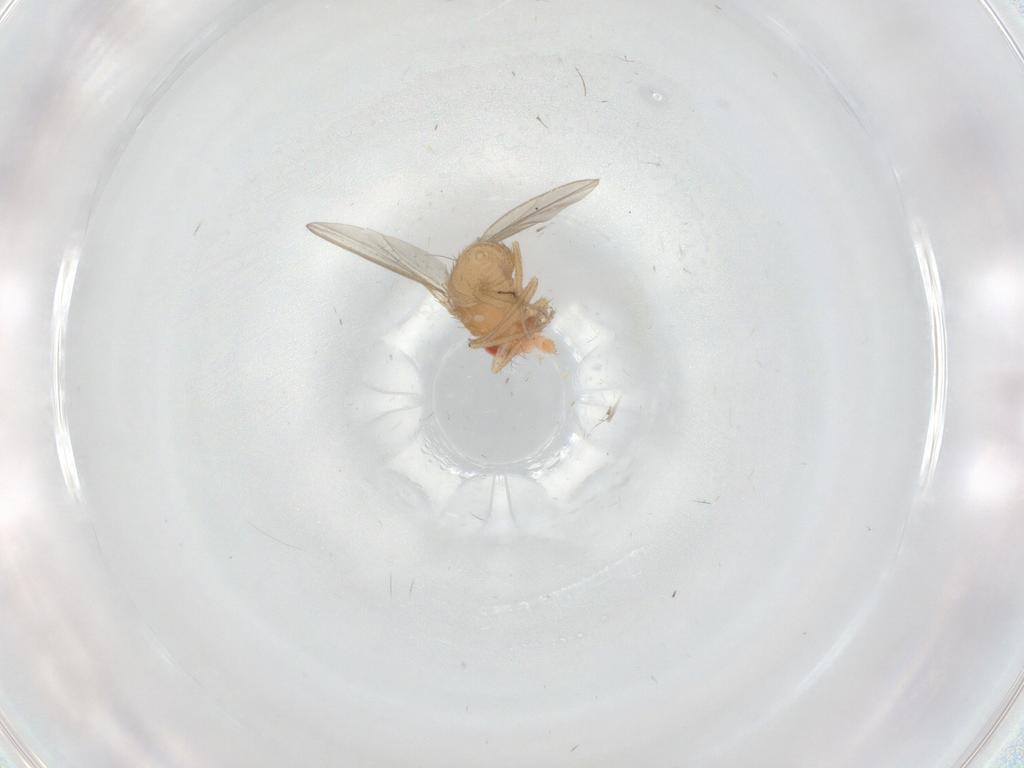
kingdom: Animalia
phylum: Arthropoda
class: Insecta
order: Diptera
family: Drosophilidae
